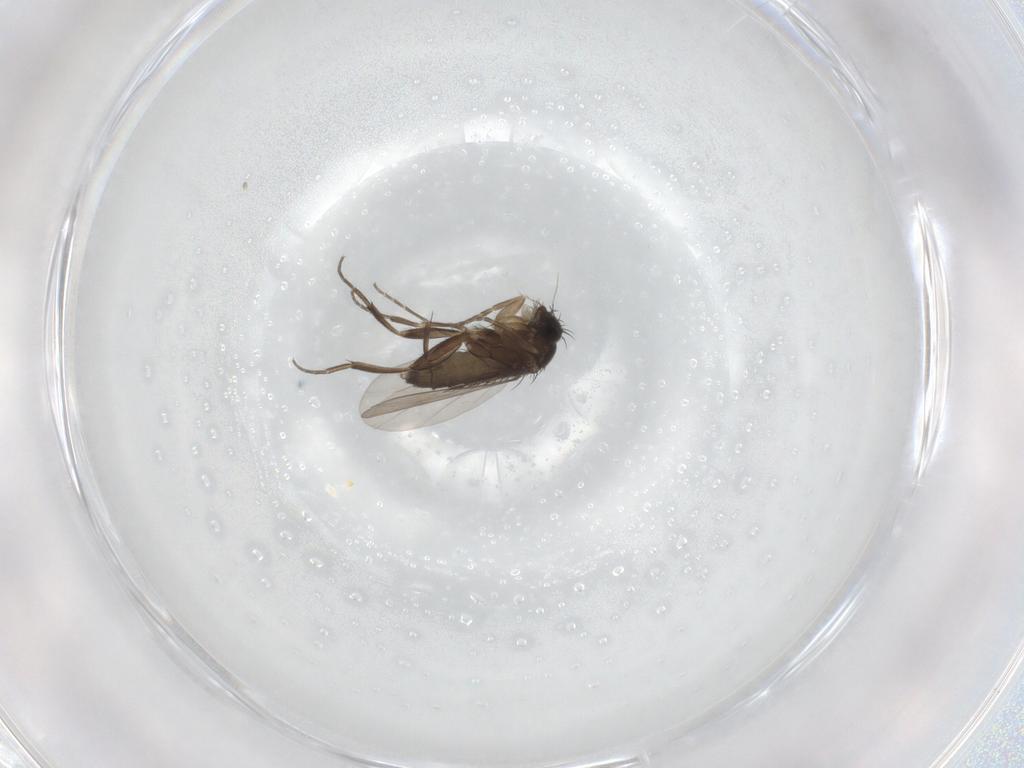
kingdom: Animalia
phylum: Arthropoda
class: Insecta
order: Diptera
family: Phoridae
